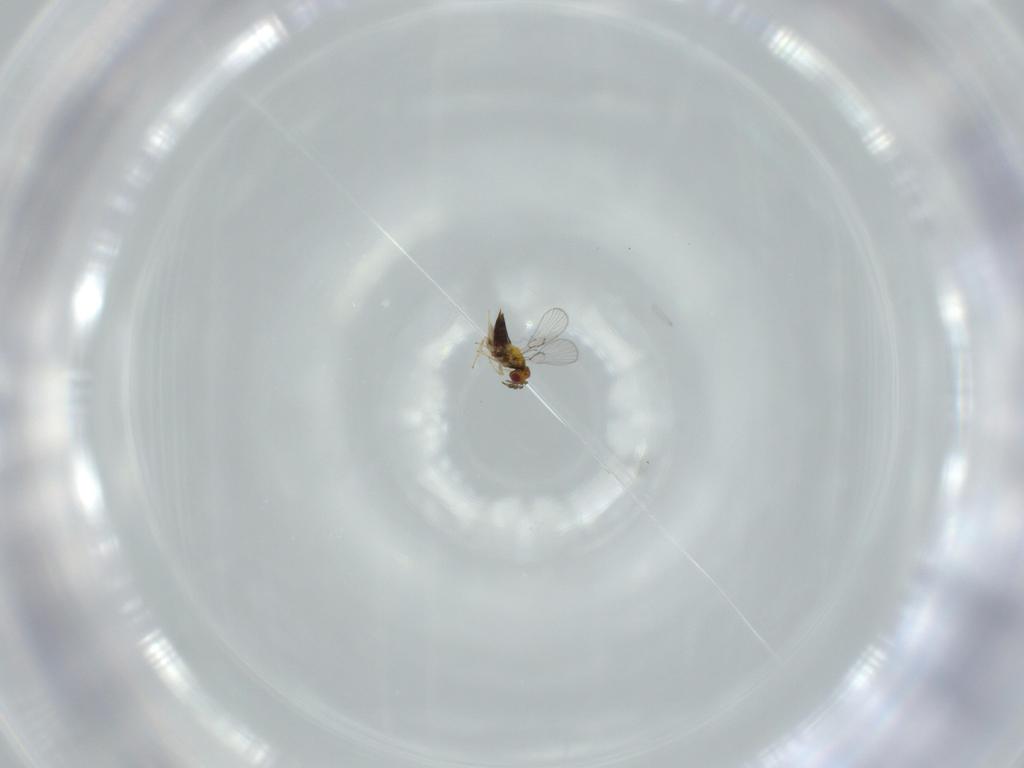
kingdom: Animalia
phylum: Arthropoda
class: Insecta
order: Hymenoptera
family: Trichogrammatidae
